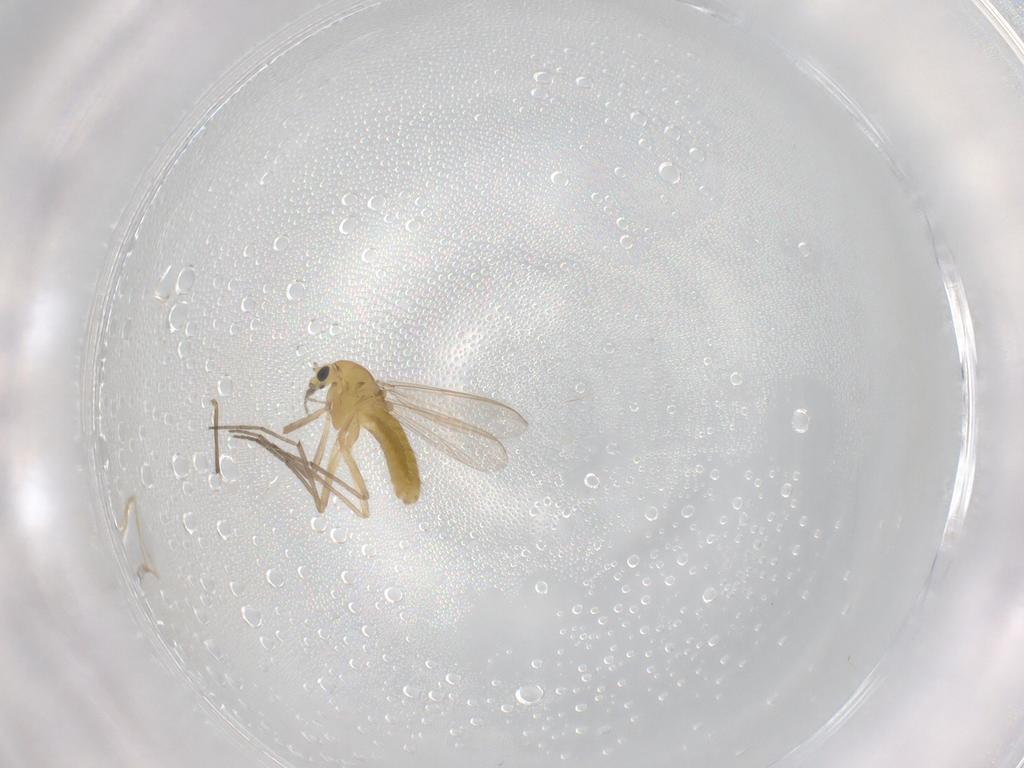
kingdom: Animalia
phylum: Arthropoda
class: Insecta
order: Diptera
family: Chironomidae
